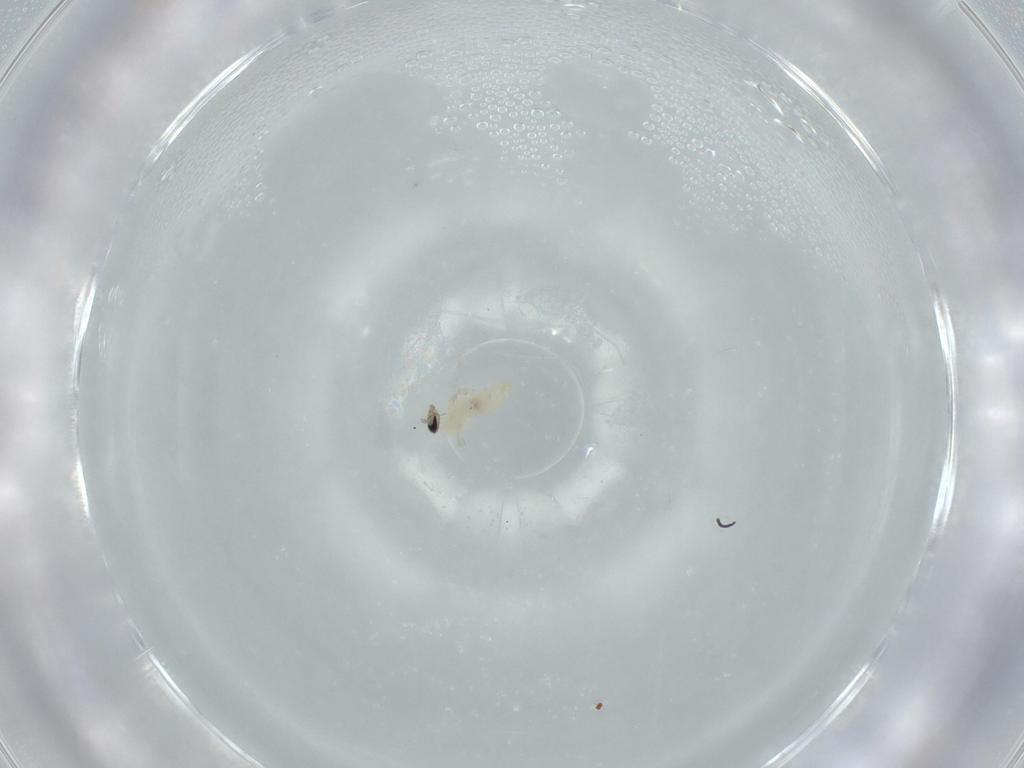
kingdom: Animalia
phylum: Arthropoda
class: Insecta
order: Diptera
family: Cecidomyiidae
